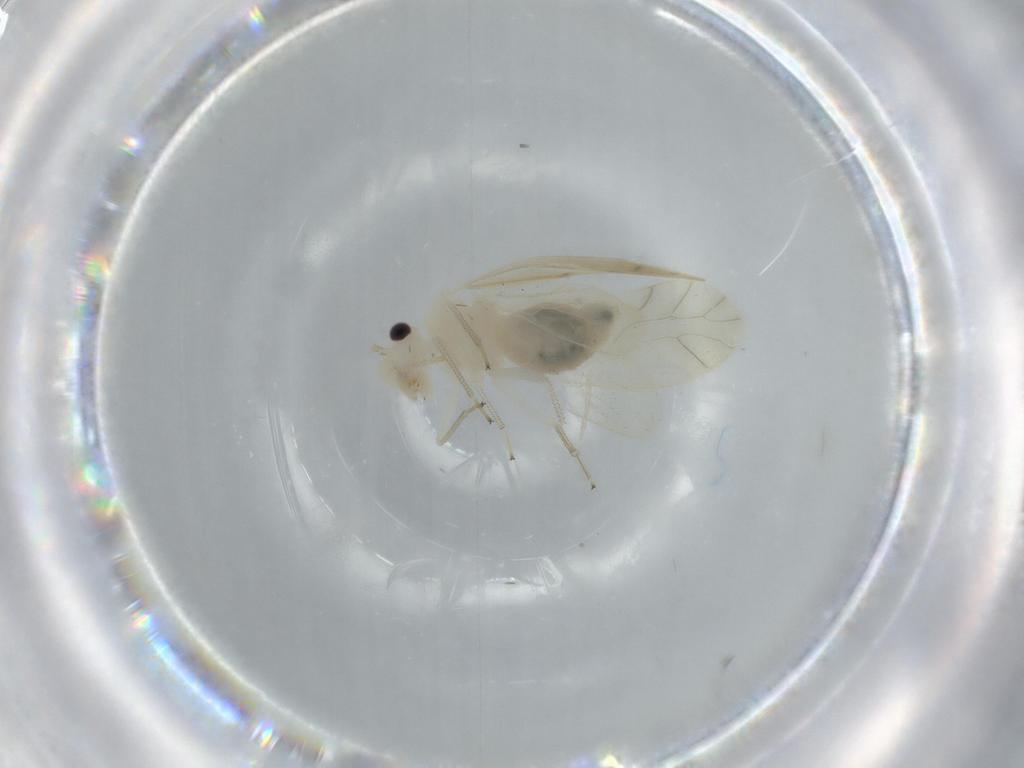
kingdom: Animalia
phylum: Arthropoda
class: Insecta
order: Psocodea
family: Caeciliusidae
